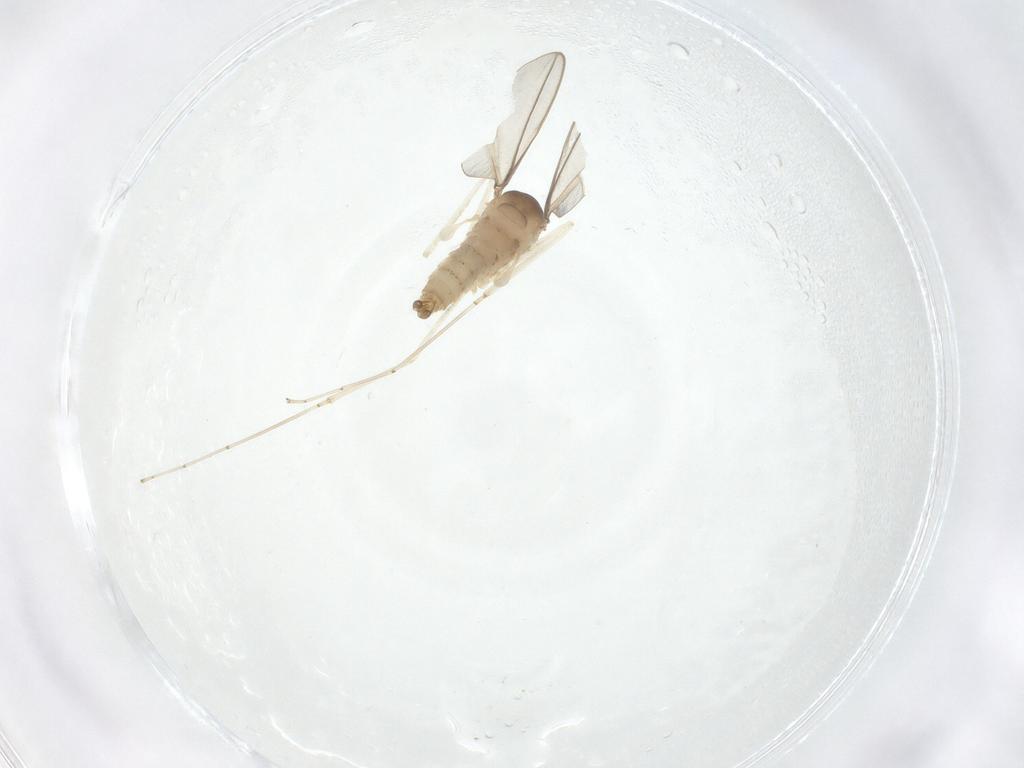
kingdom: Animalia
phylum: Arthropoda
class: Insecta
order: Diptera
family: Cecidomyiidae
